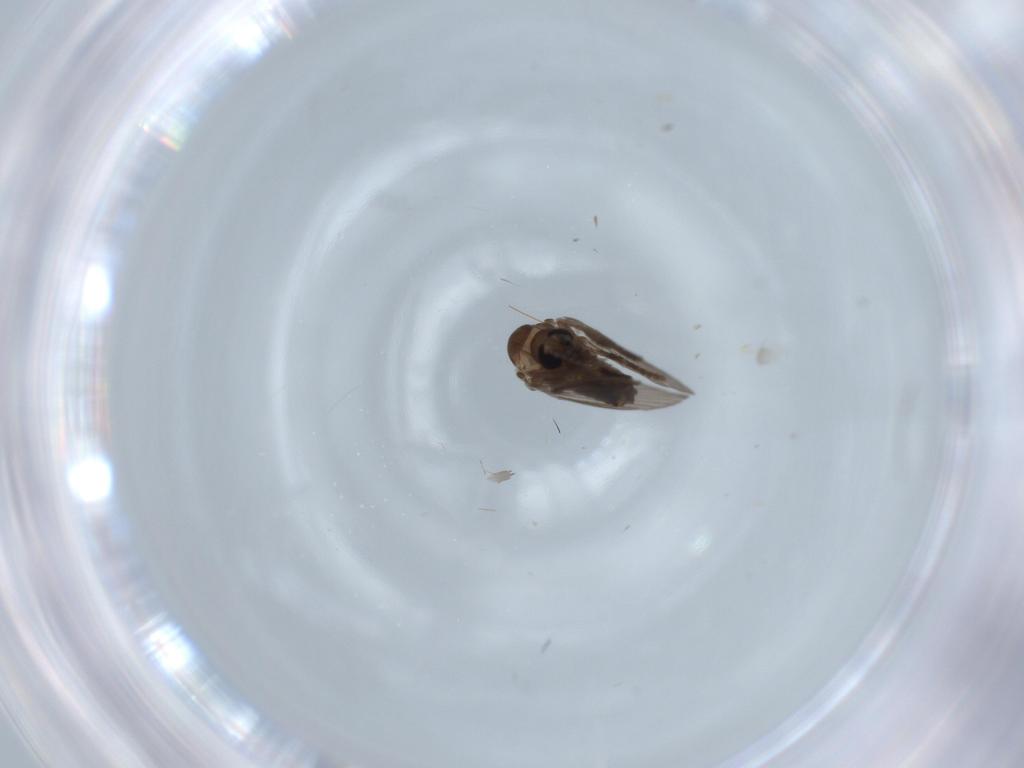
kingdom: Animalia
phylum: Arthropoda
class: Insecta
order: Diptera
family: Psychodidae
